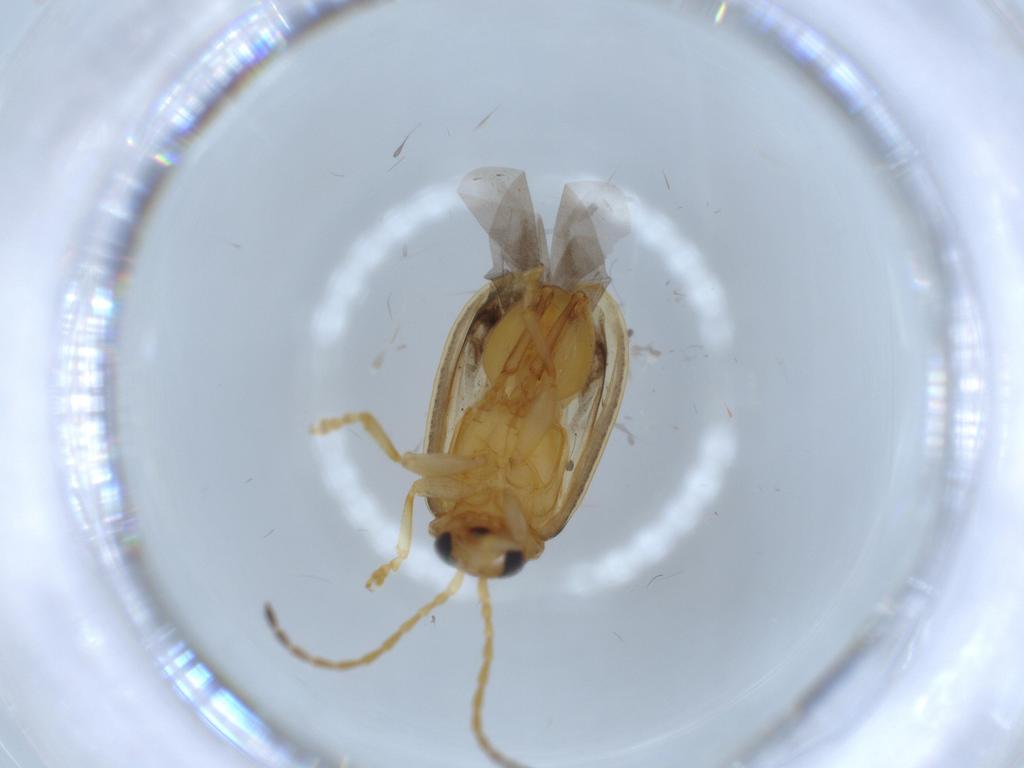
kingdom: Animalia
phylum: Arthropoda
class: Insecta
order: Coleoptera
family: Chrysomelidae
